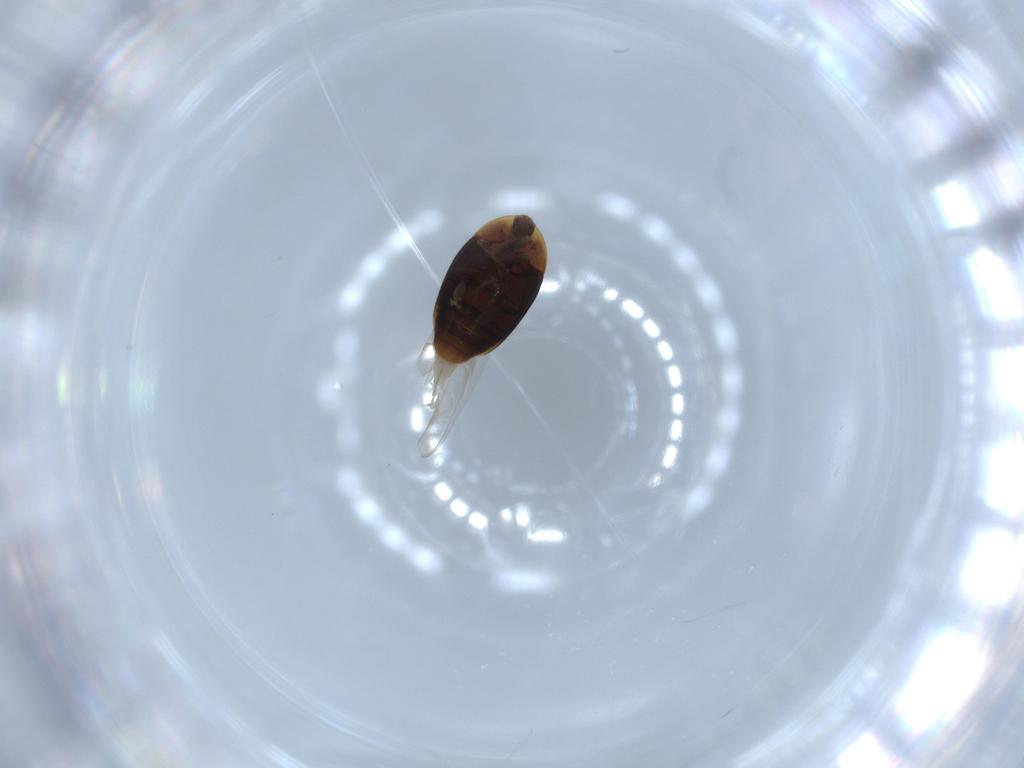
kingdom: Animalia
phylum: Arthropoda
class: Insecta
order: Coleoptera
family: Corylophidae
